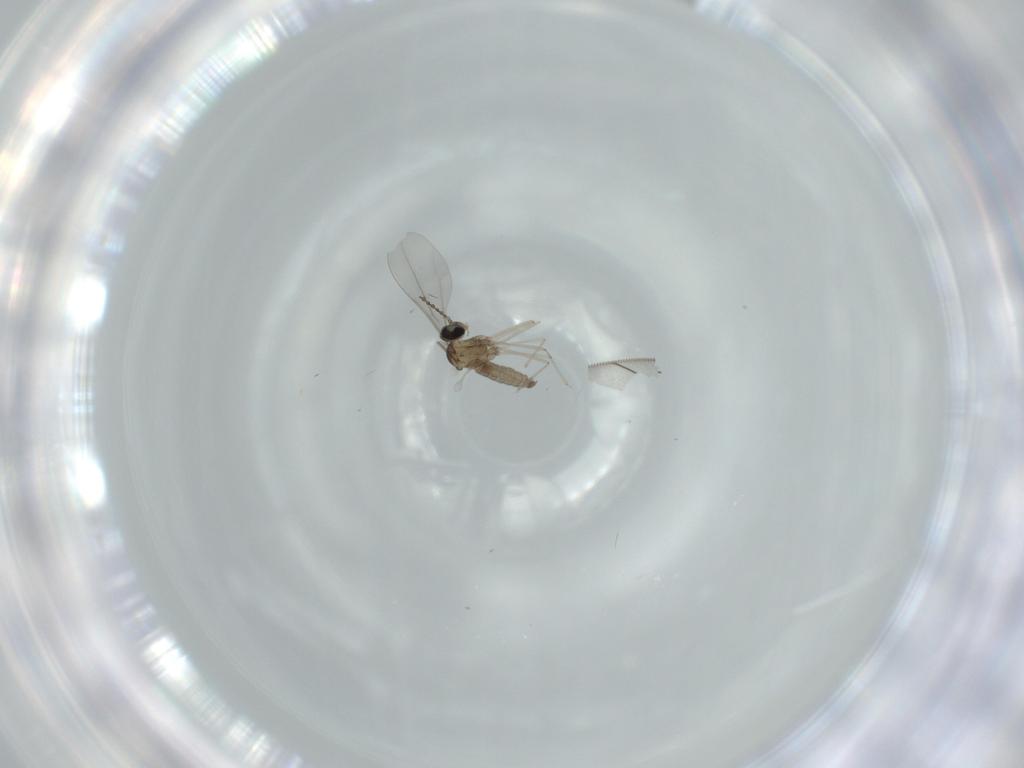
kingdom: Animalia
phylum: Arthropoda
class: Insecta
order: Diptera
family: Cecidomyiidae
